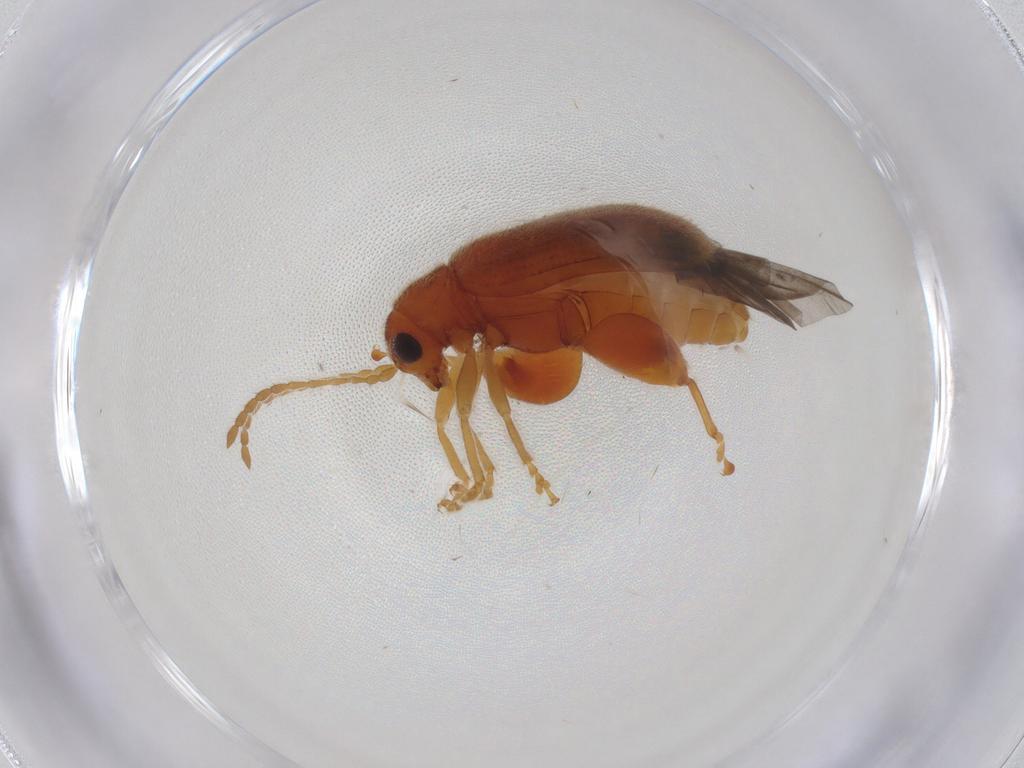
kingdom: Animalia
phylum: Arthropoda
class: Insecta
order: Coleoptera
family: Chrysomelidae
